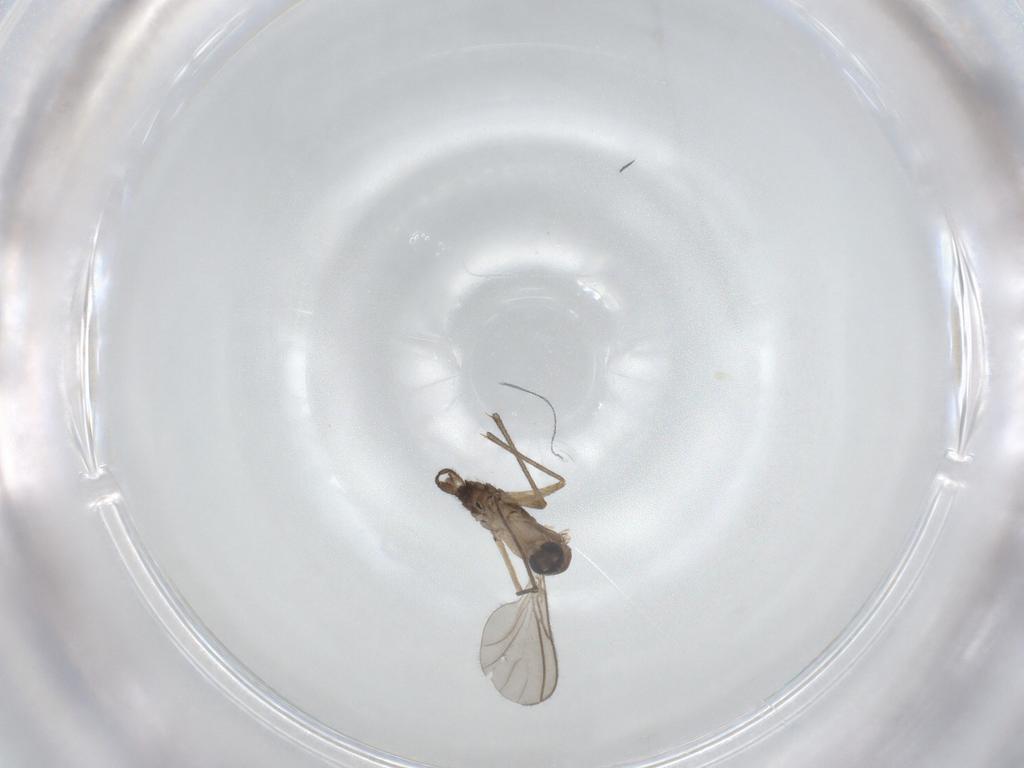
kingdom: Animalia
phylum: Arthropoda
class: Insecta
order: Diptera
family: Sciaridae
